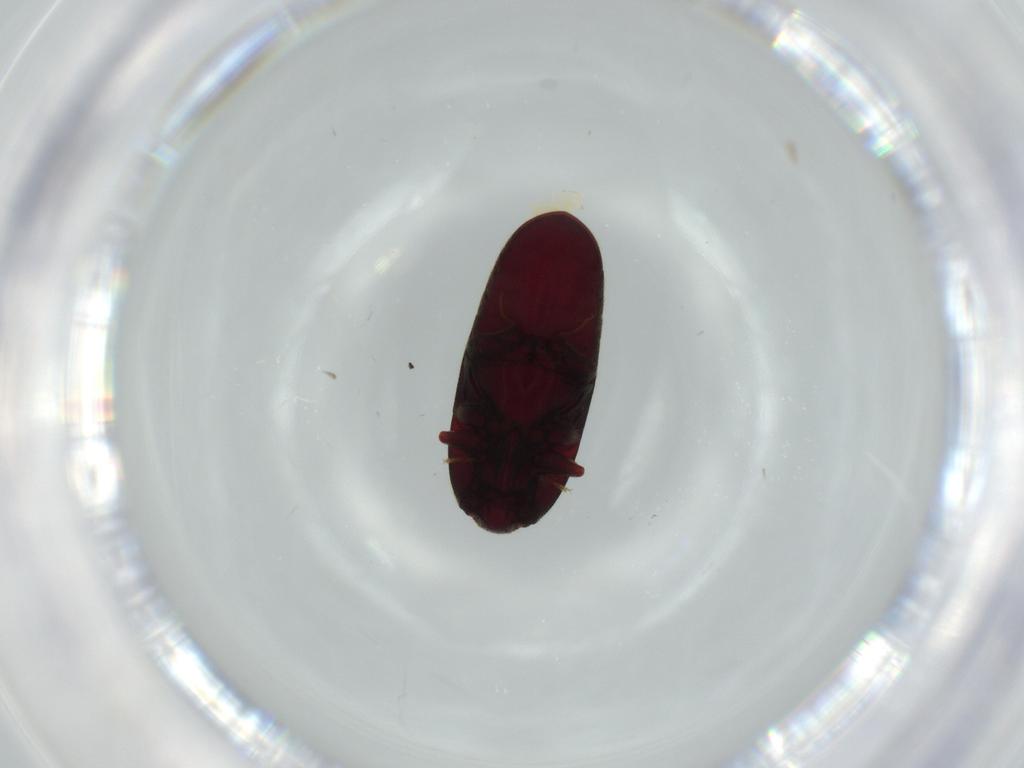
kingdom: Animalia
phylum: Arthropoda
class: Insecta
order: Coleoptera
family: Throscidae
